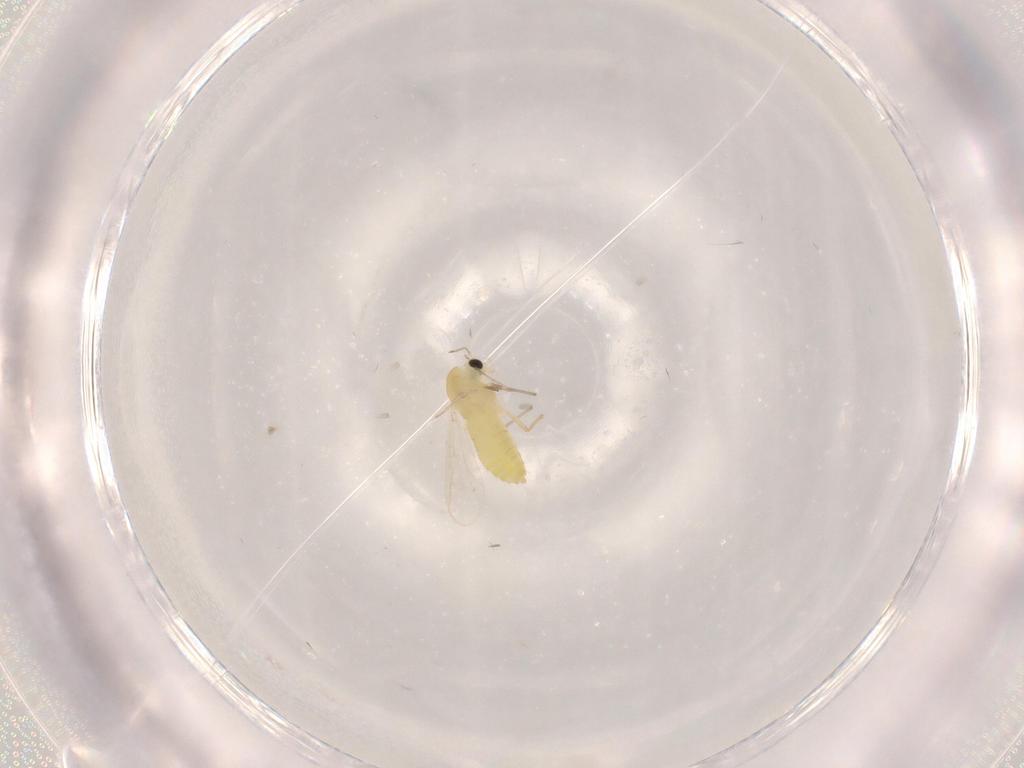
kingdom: Animalia
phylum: Arthropoda
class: Insecta
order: Diptera
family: Chironomidae
